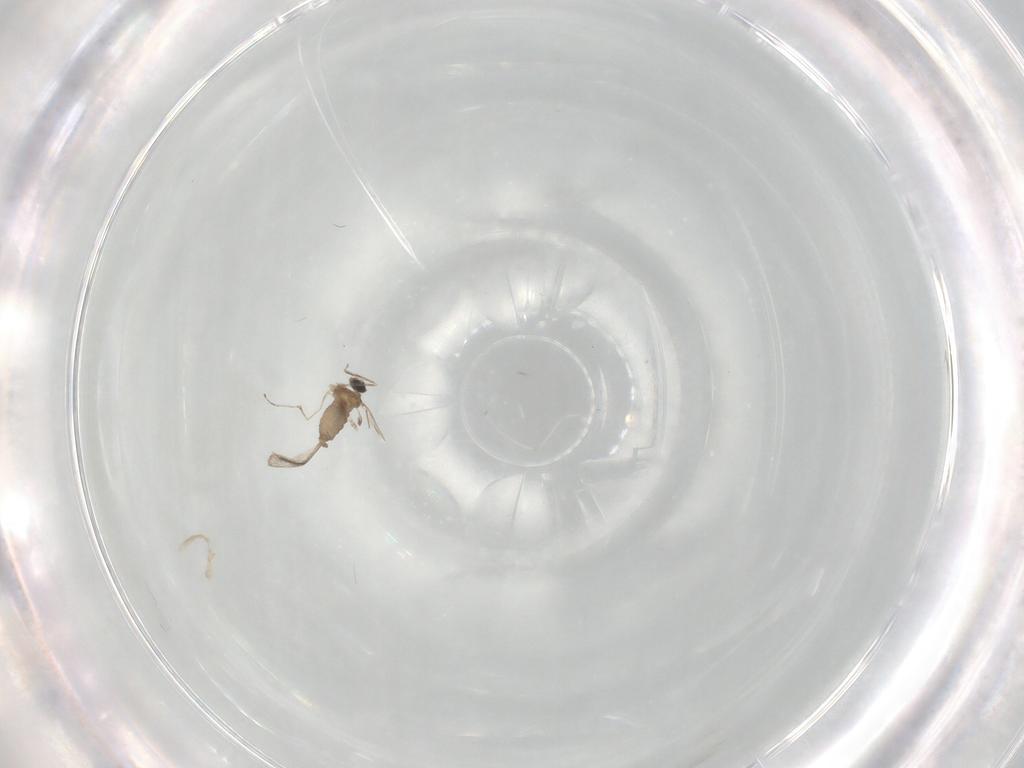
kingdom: Animalia
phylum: Arthropoda
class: Insecta
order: Diptera
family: Cecidomyiidae
